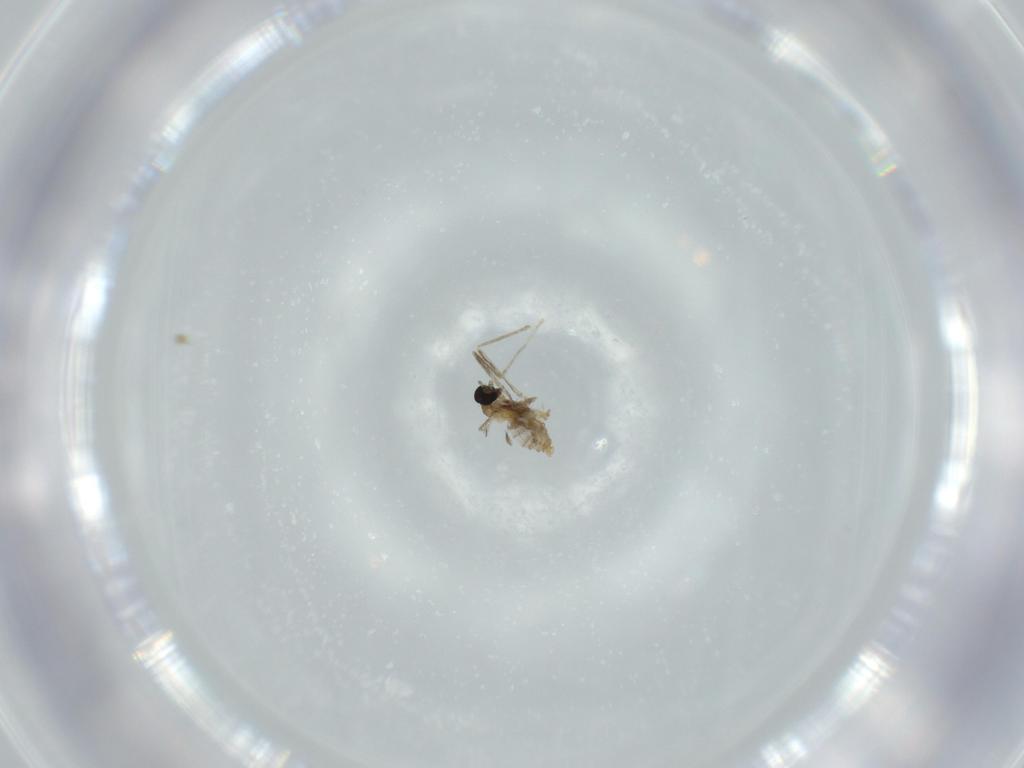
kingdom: Animalia
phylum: Arthropoda
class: Insecta
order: Diptera
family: Cecidomyiidae
